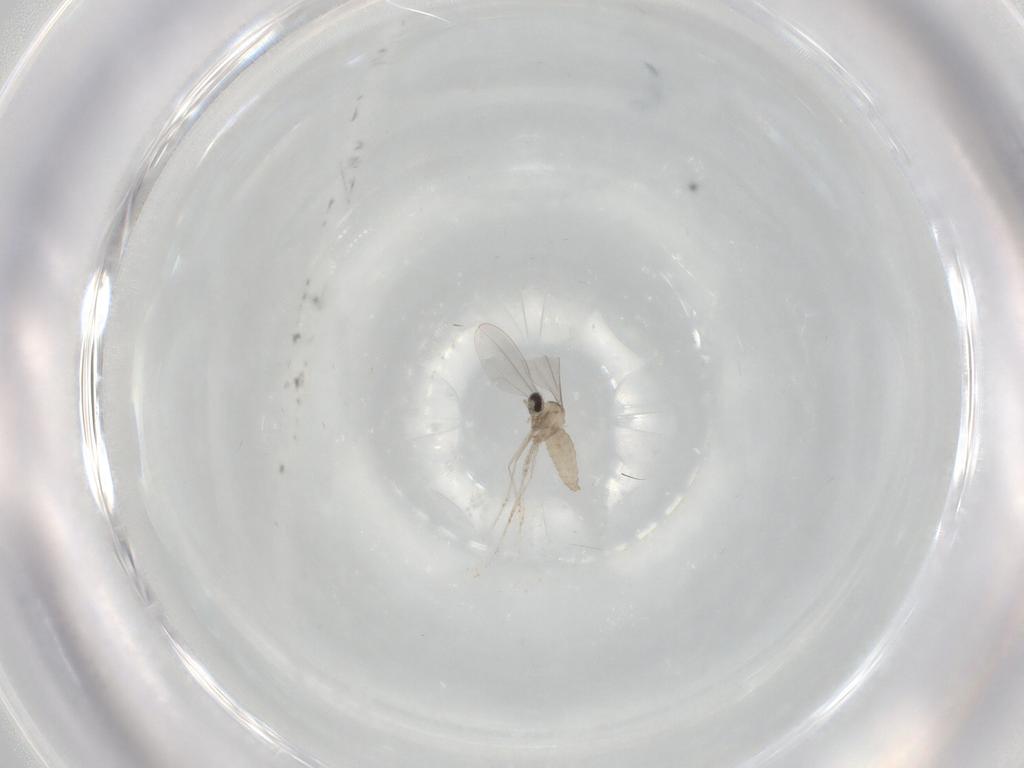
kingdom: Animalia
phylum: Arthropoda
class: Insecta
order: Diptera
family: Cecidomyiidae
